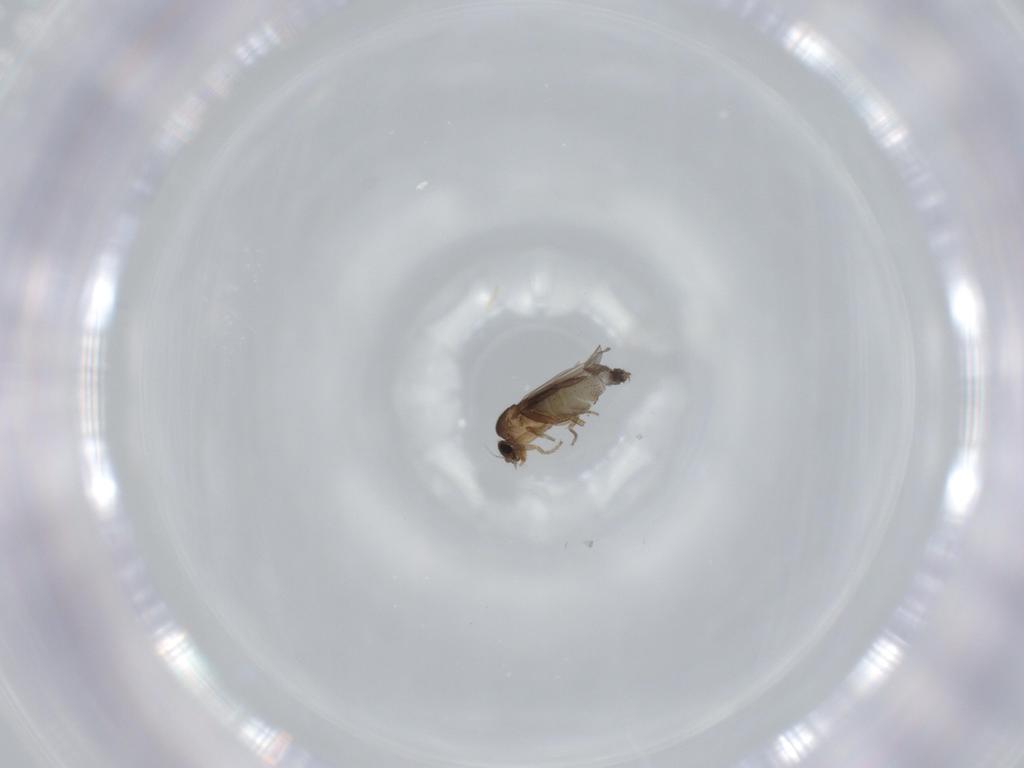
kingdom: Animalia
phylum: Arthropoda
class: Insecta
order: Diptera
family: Phoridae
